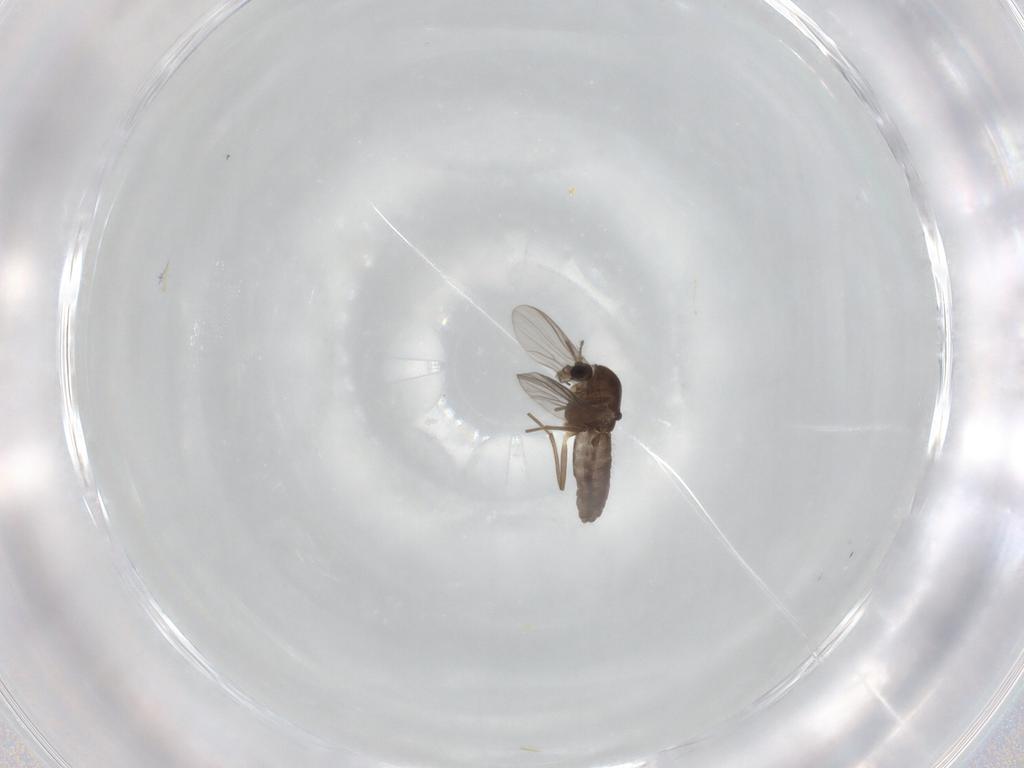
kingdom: Animalia
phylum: Arthropoda
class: Insecta
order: Diptera
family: Chironomidae
